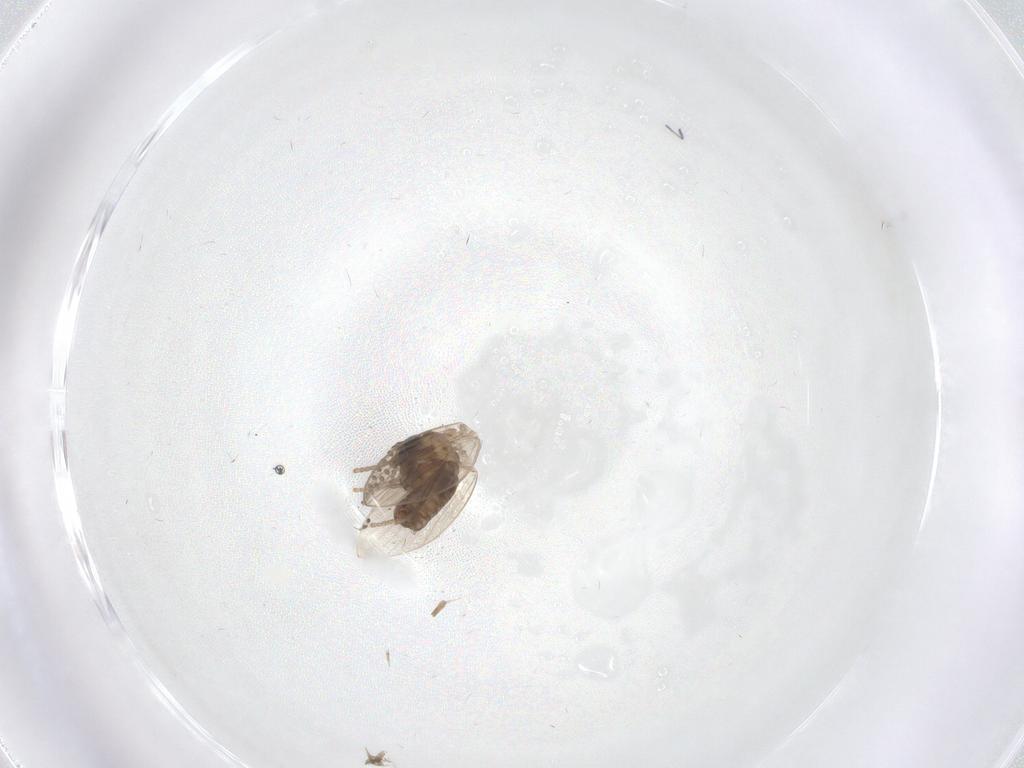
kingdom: Animalia
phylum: Arthropoda
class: Insecta
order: Diptera
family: Psychodidae
